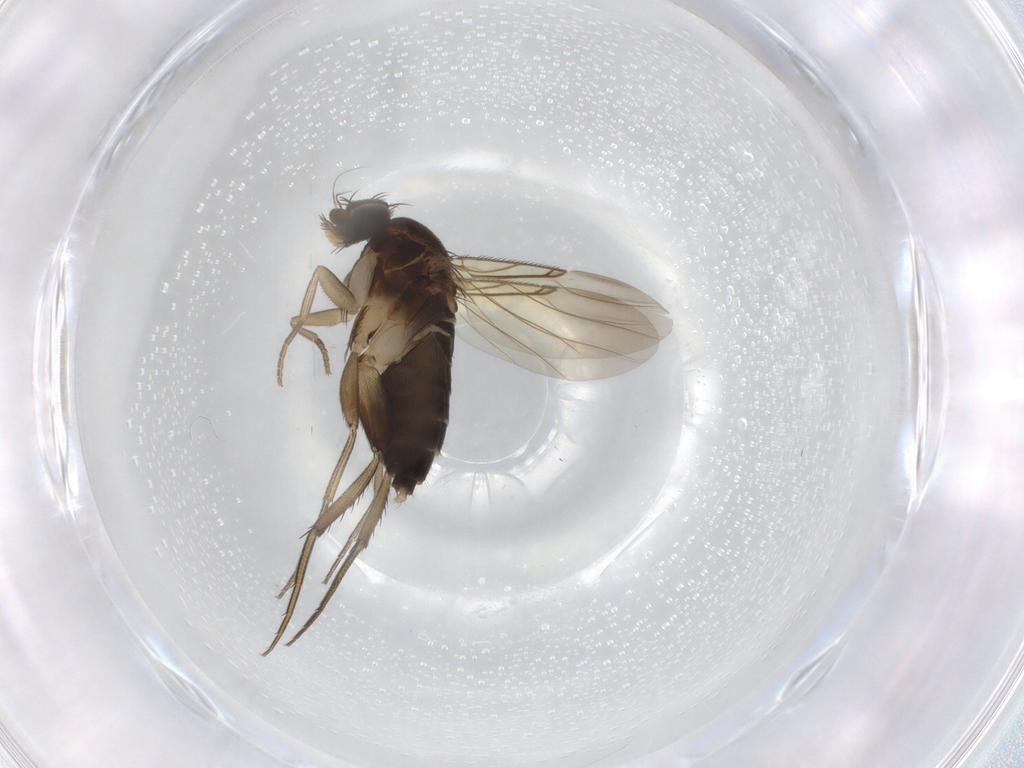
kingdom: Animalia
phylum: Arthropoda
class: Insecta
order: Diptera
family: Phoridae
